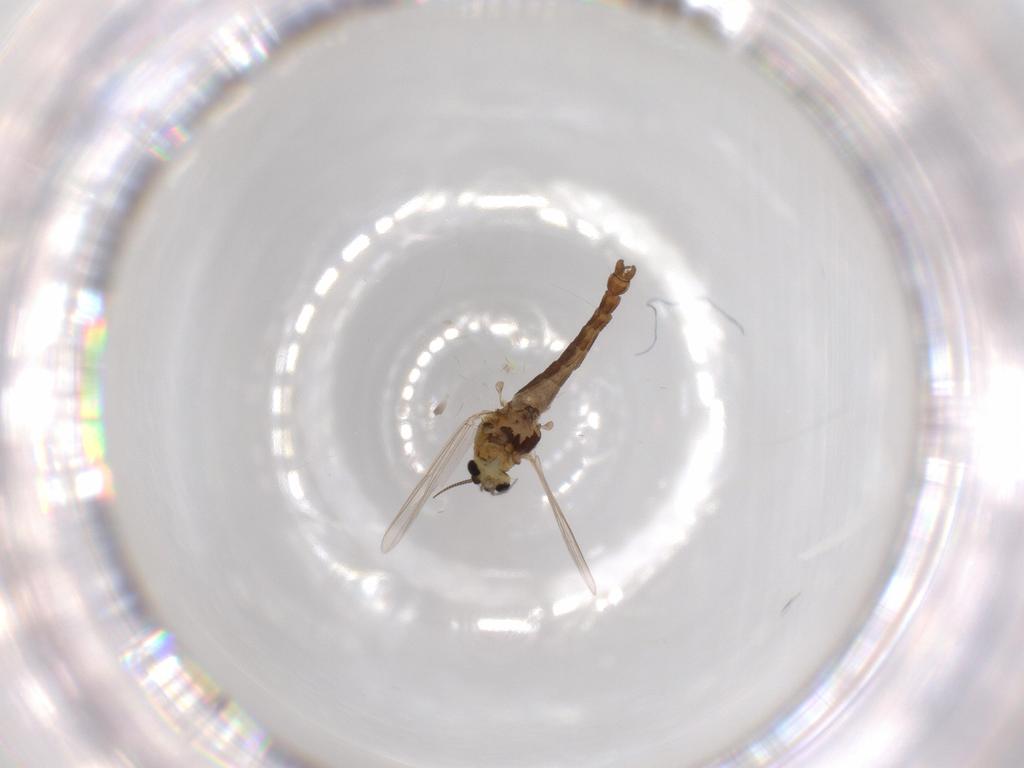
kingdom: Animalia
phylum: Arthropoda
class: Insecta
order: Diptera
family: Chironomidae
